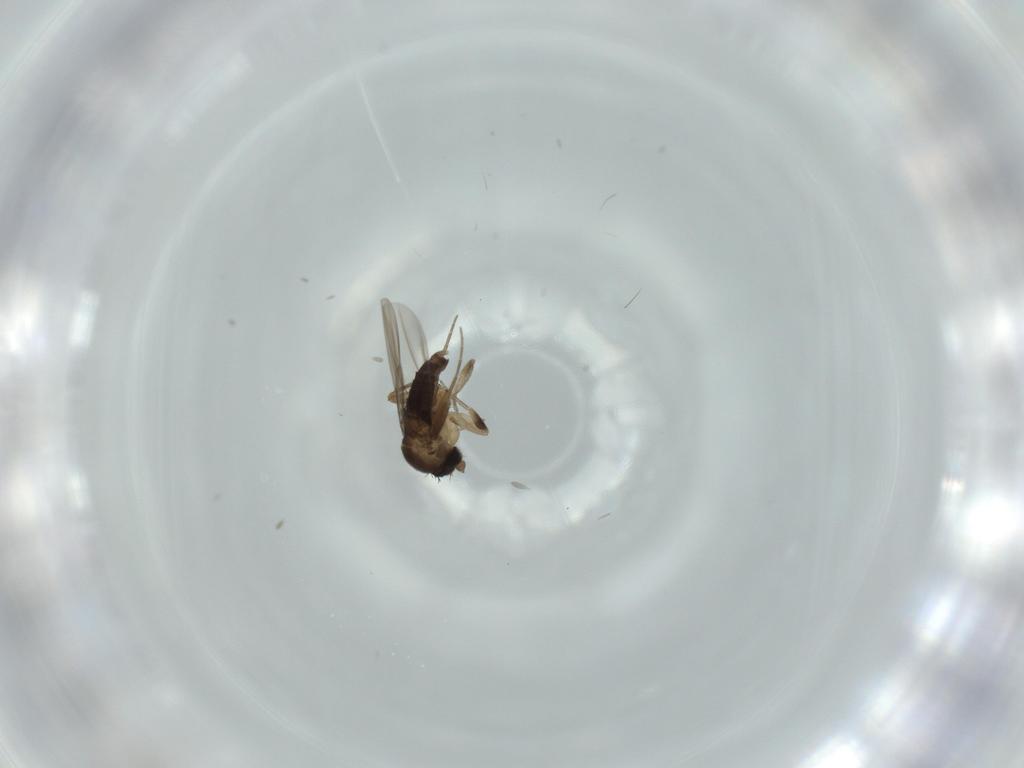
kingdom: Animalia
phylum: Arthropoda
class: Insecta
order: Diptera
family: Phoridae
